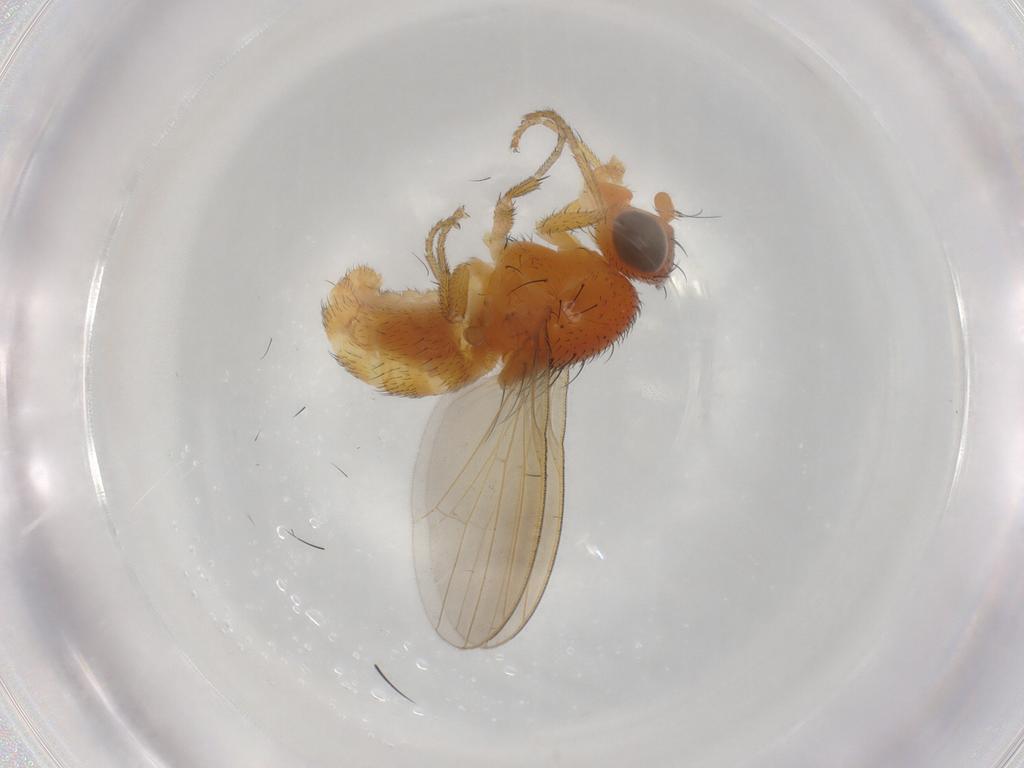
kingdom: Animalia
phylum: Arthropoda
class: Insecta
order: Diptera
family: Lauxaniidae
